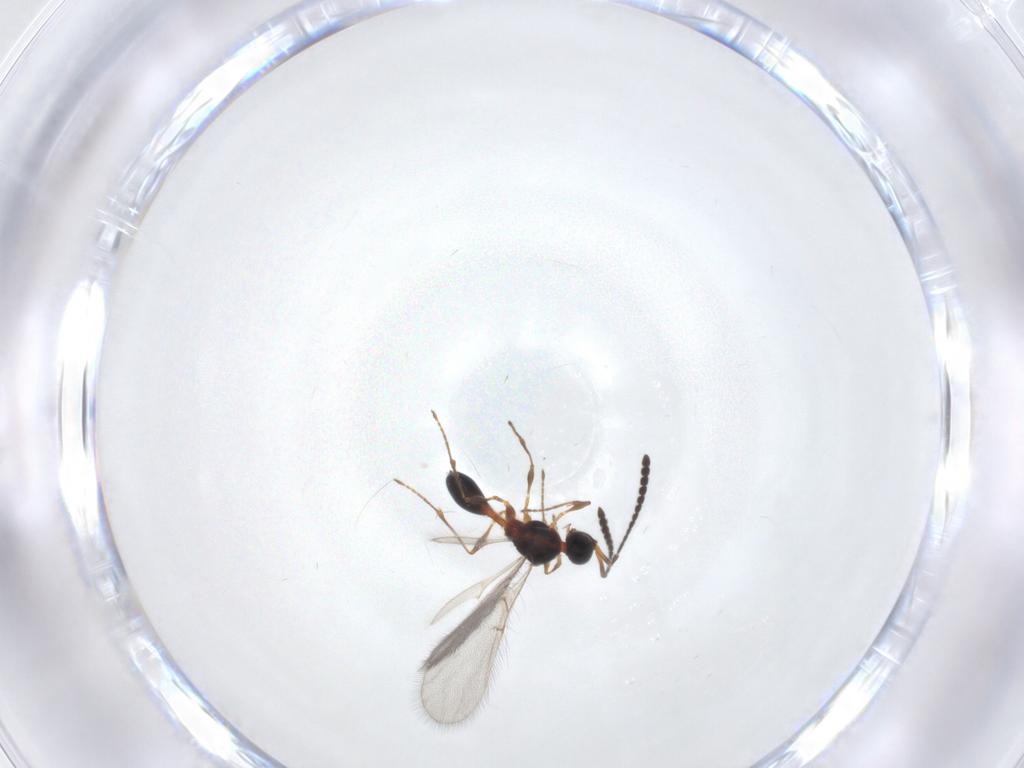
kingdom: Animalia
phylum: Arthropoda
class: Insecta
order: Hymenoptera
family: Diapriidae
